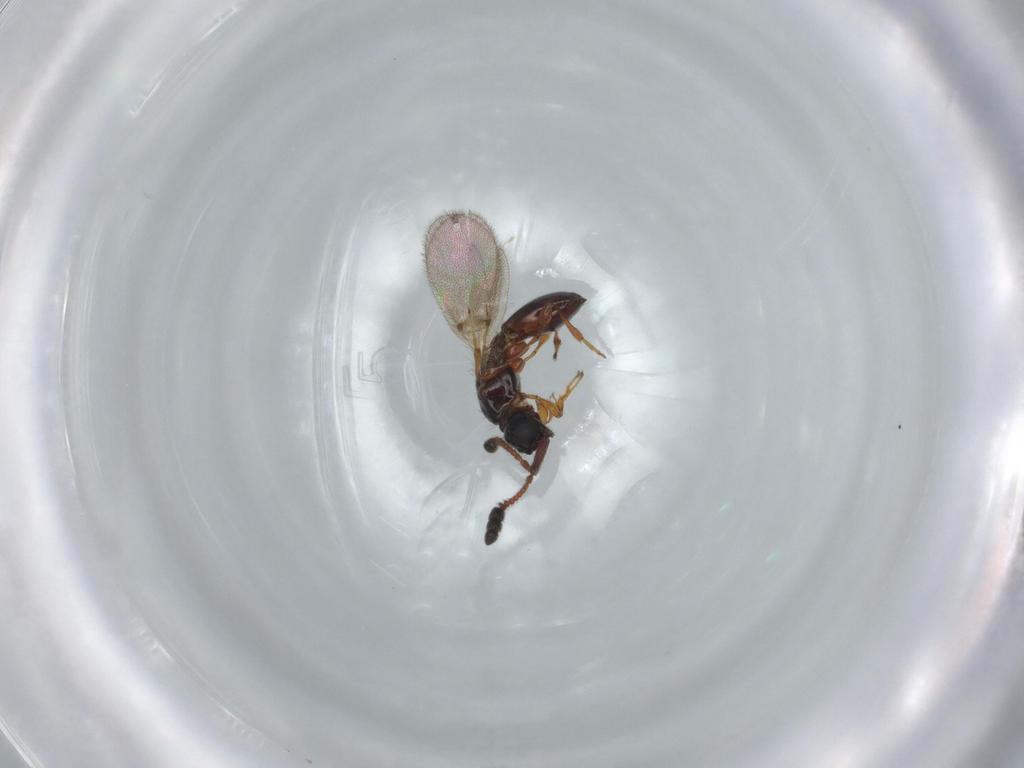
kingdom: Animalia
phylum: Arthropoda
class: Insecta
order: Hymenoptera
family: Diapriidae
